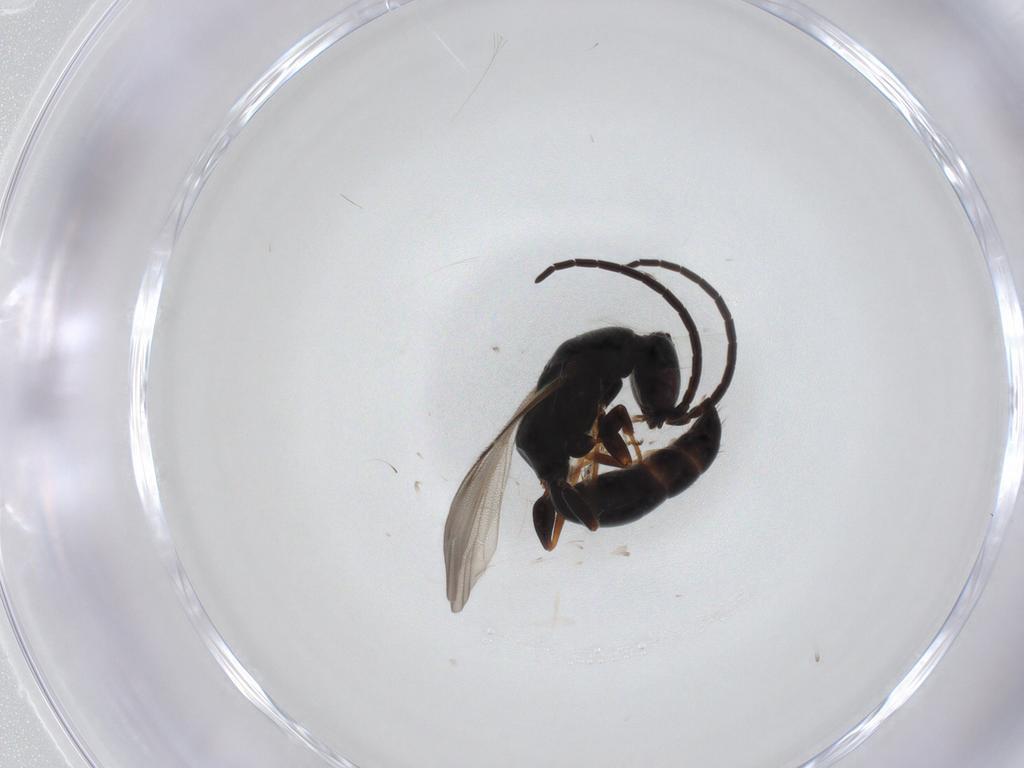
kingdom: Animalia
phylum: Arthropoda
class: Insecta
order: Hymenoptera
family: Bethylidae
